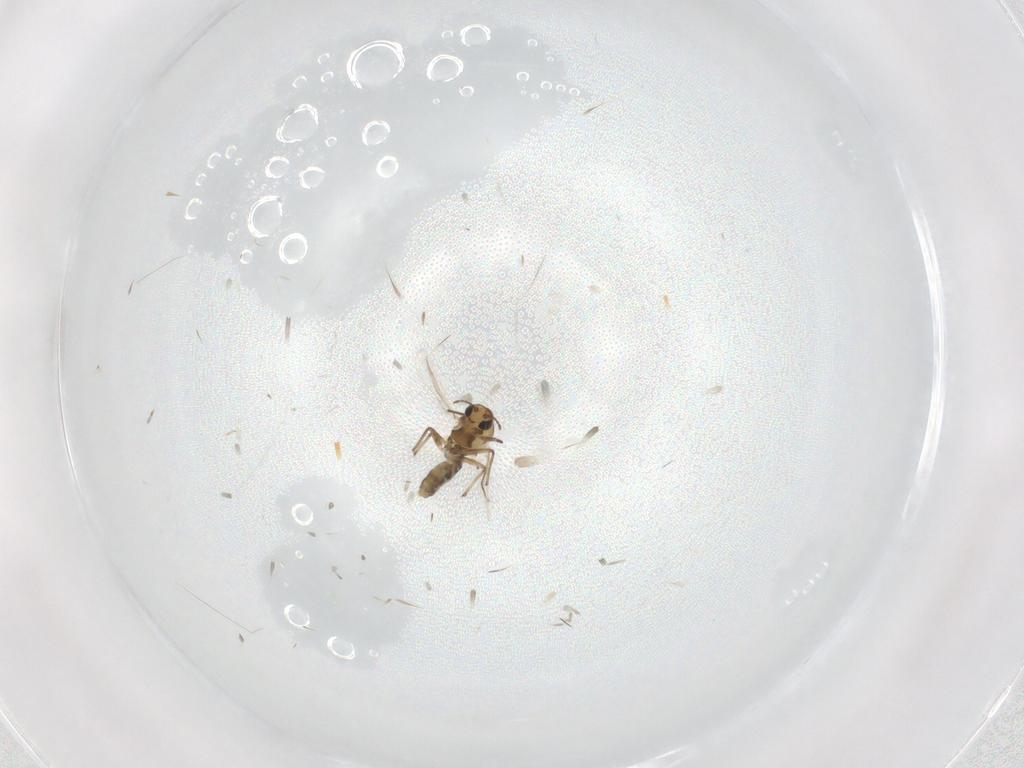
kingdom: Animalia
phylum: Arthropoda
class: Insecta
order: Diptera
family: Chironomidae
